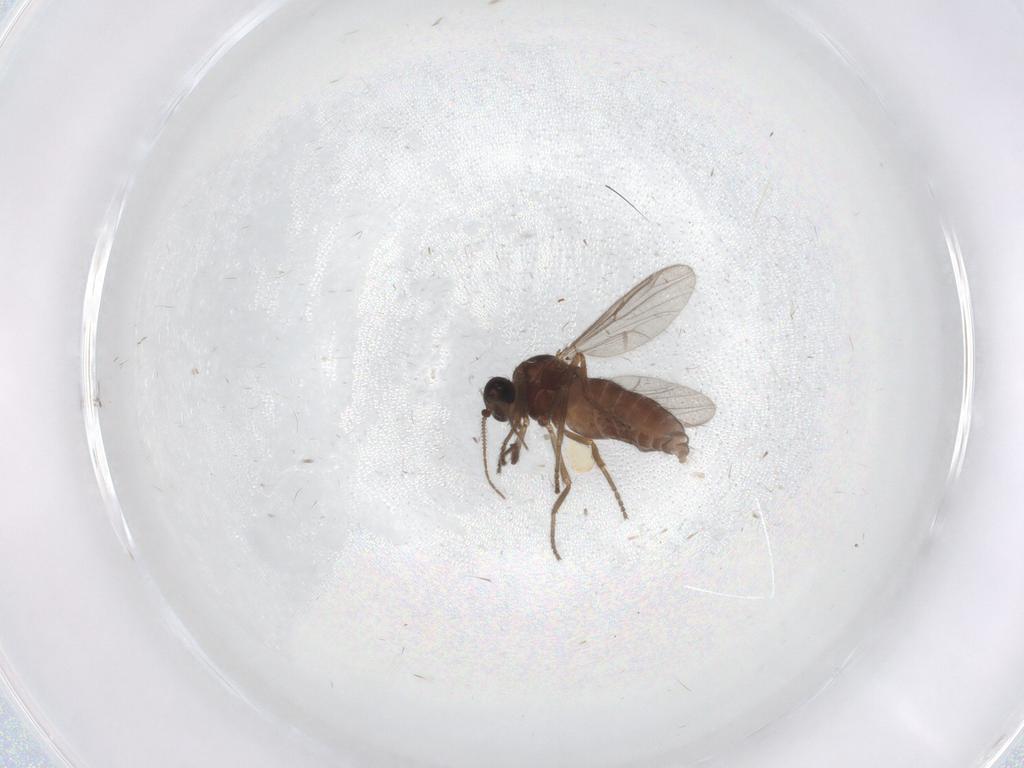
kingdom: Animalia
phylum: Arthropoda
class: Insecta
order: Diptera
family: Ceratopogonidae
